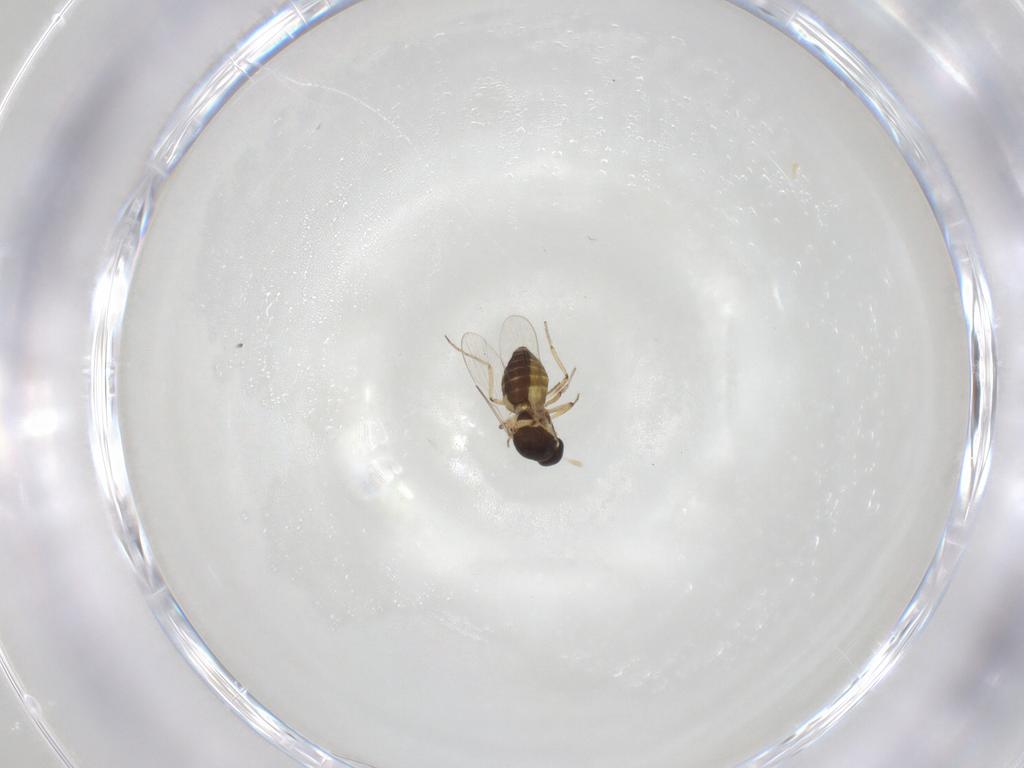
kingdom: Animalia
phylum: Arthropoda
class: Insecta
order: Diptera
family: Ceratopogonidae
